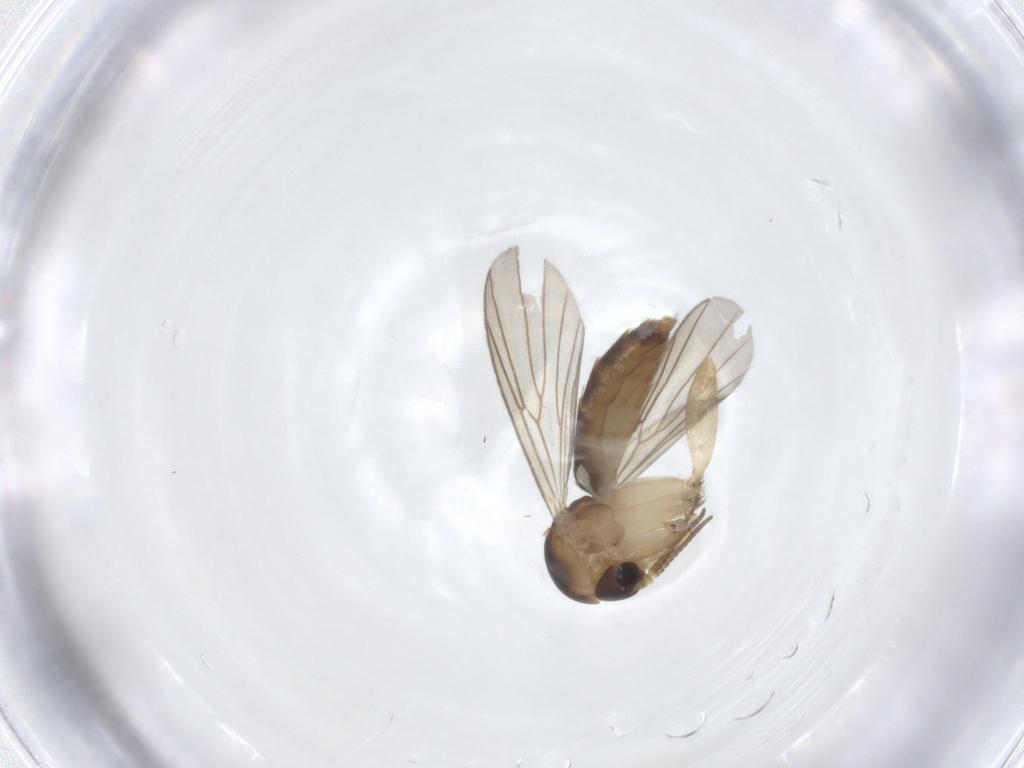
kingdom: Animalia
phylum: Arthropoda
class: Insecta
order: Diptera
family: Mycetophilidae
